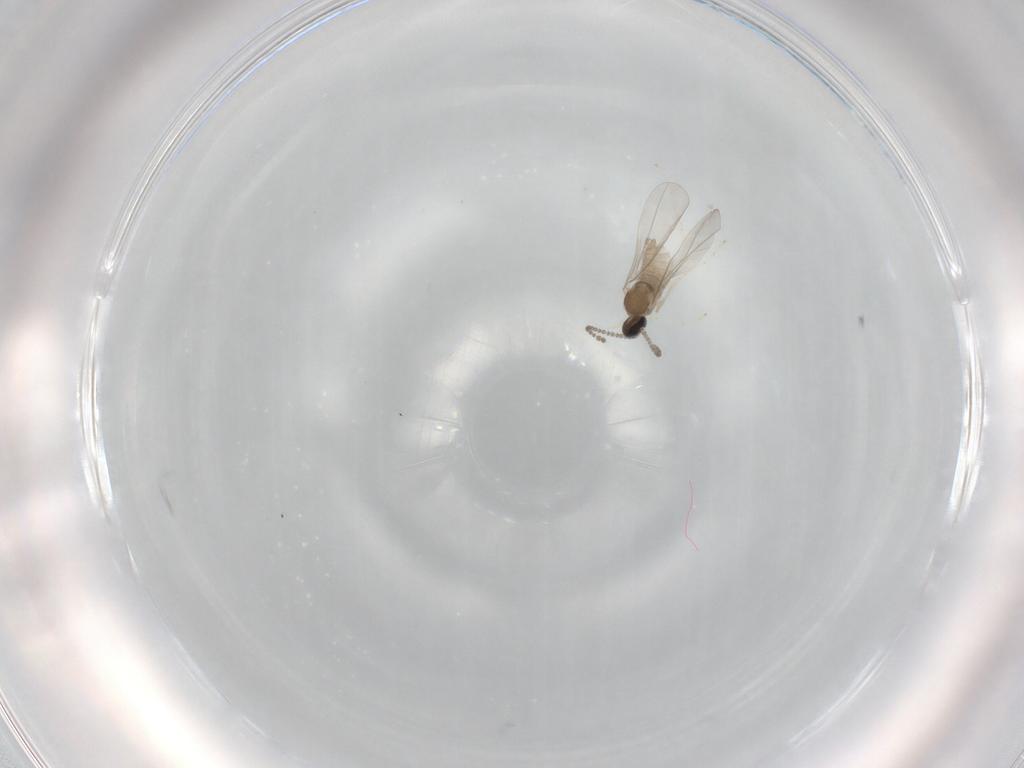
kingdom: Animalia
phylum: Arthropoda
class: Insecta
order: Diptera
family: Cecidomyiidae
